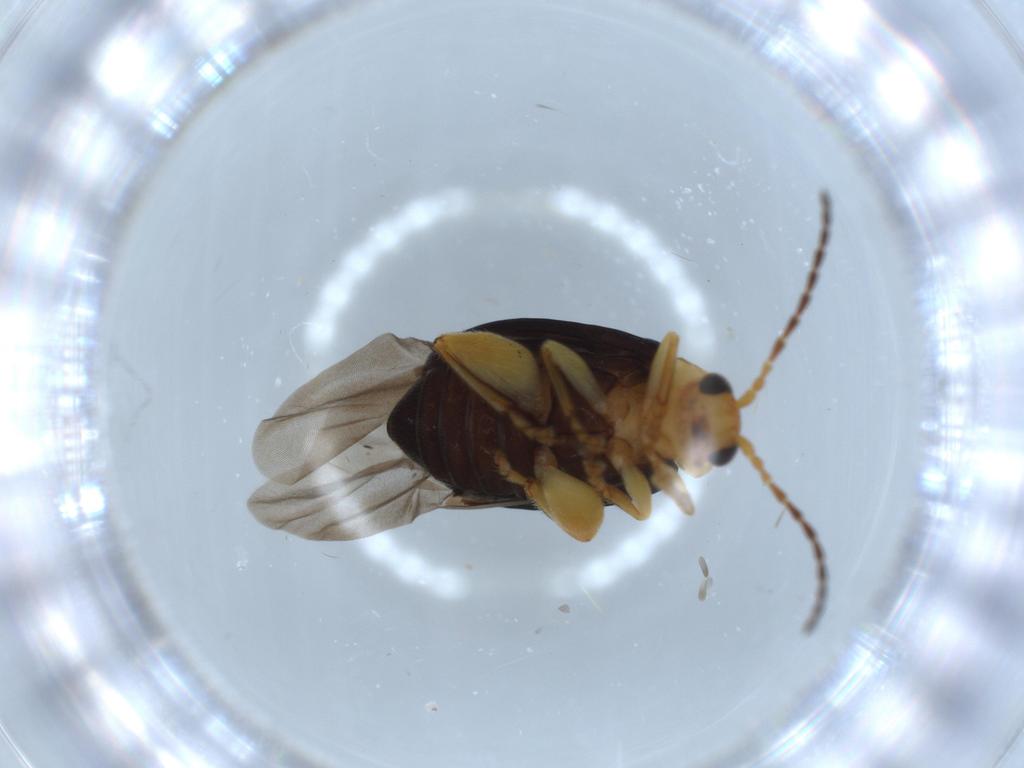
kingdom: Animalia
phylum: Arthropoda
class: Insecta
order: Coleoptera
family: Chrysomelidae
